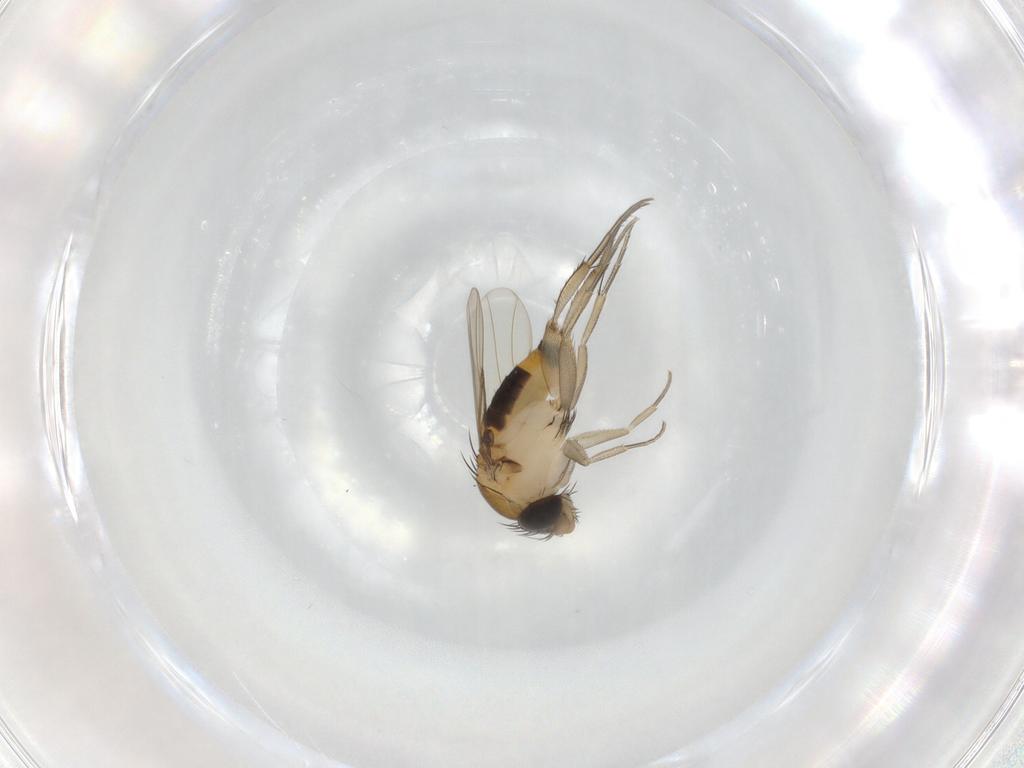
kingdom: Animalia
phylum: Arthropoda
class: Insecta
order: Diptera
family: Phoridae
